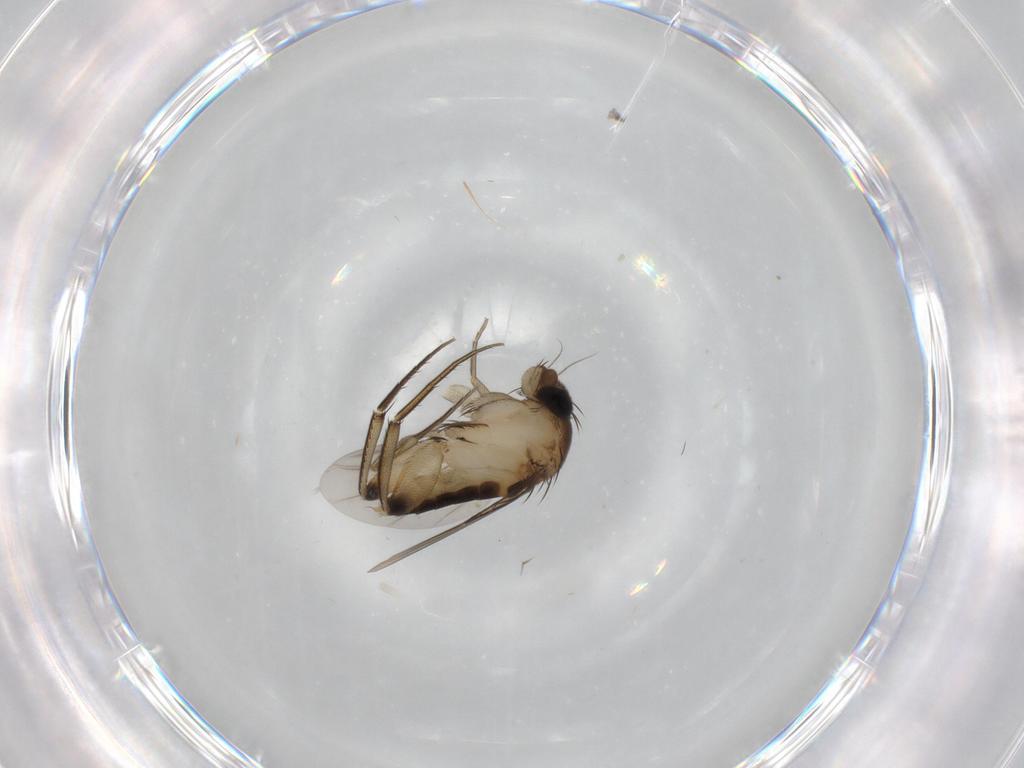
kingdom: Animalia
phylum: Arthropoda
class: Insecta
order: Diptera
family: Phoridae
